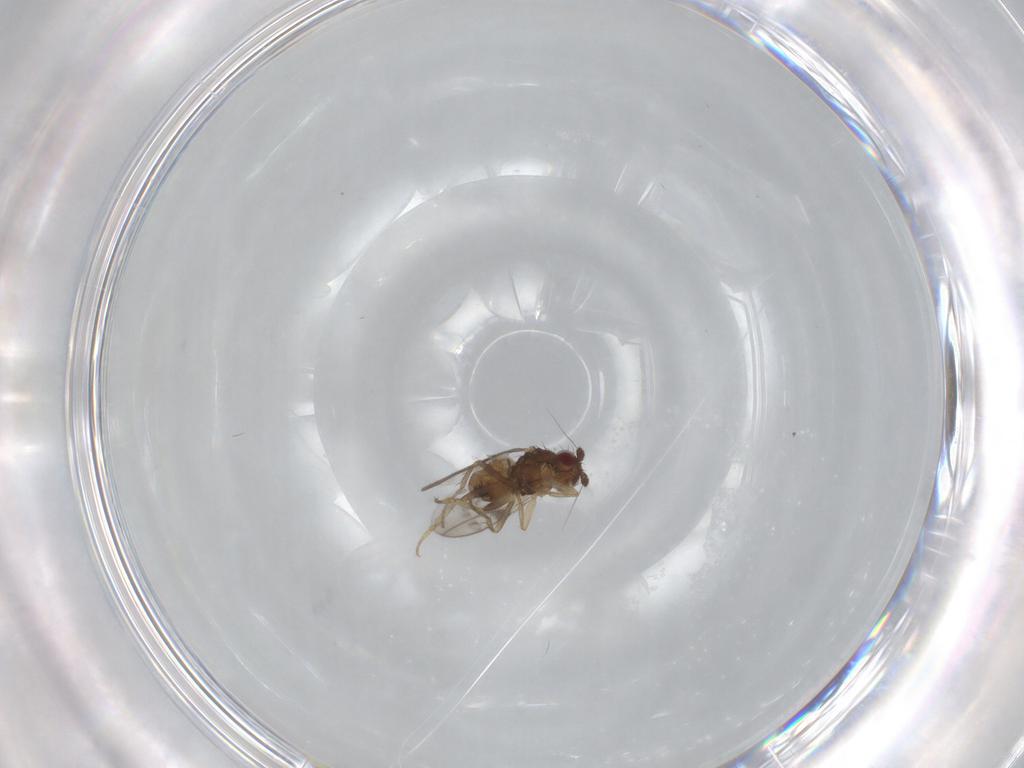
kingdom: Animalia
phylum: Arthropoda
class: Insecta
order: Diptera
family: Sphaeroceridae
